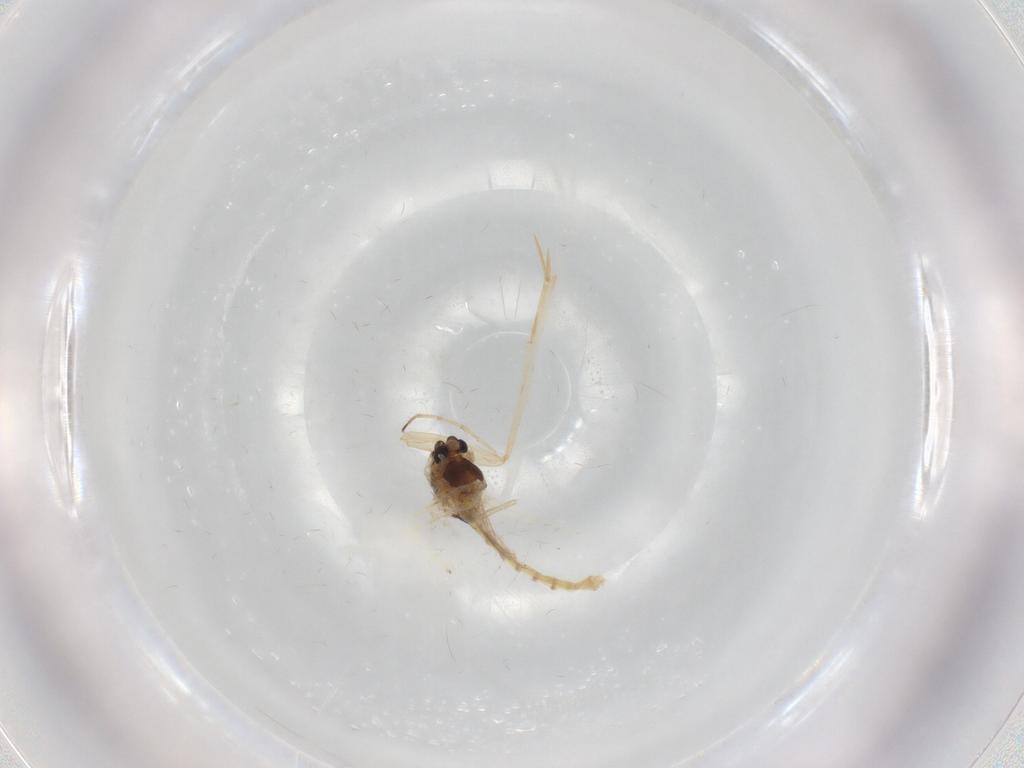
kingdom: Animalia
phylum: Arthropoda
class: Insecta
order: Diptera
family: Chironomidae
